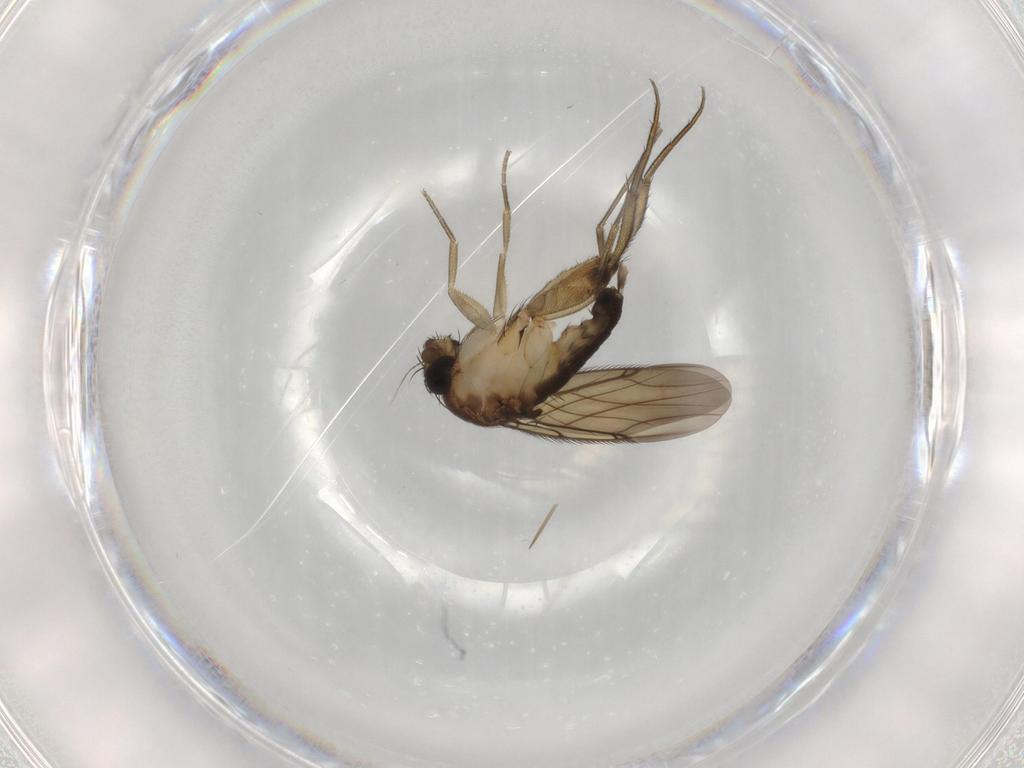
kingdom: Animalia
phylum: Arthropoda
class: Insecta
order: Diptera
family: Phoridae
